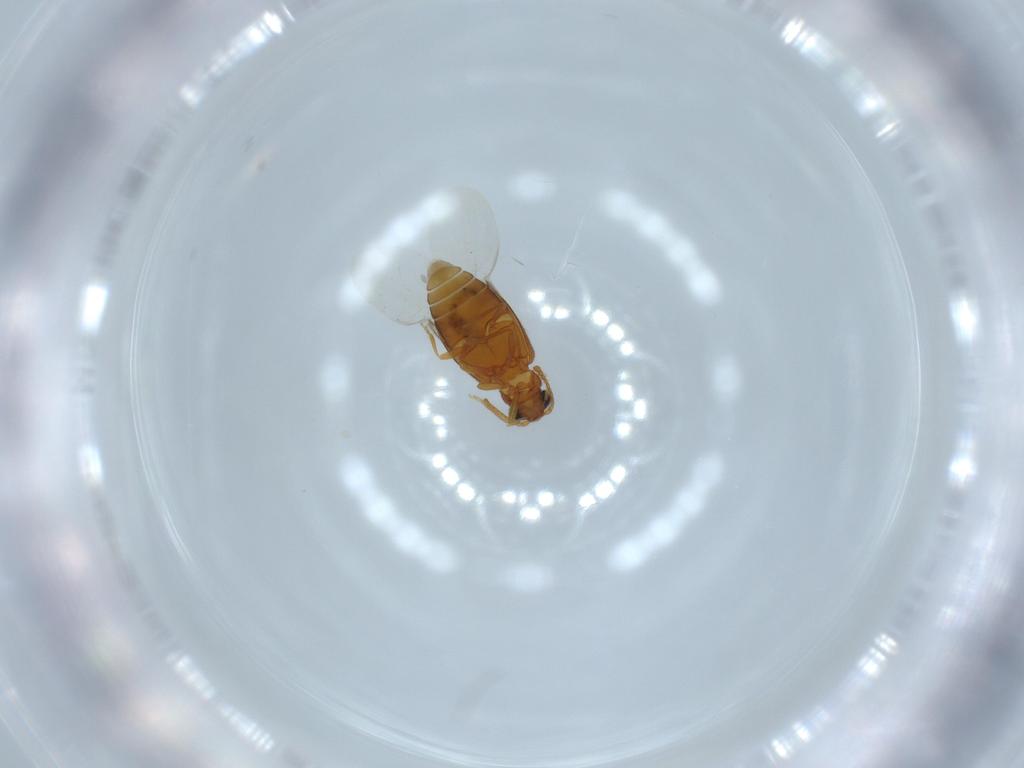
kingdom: Animalia
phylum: Arthropoda
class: Insecta
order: Coleoptera
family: Aderidae
